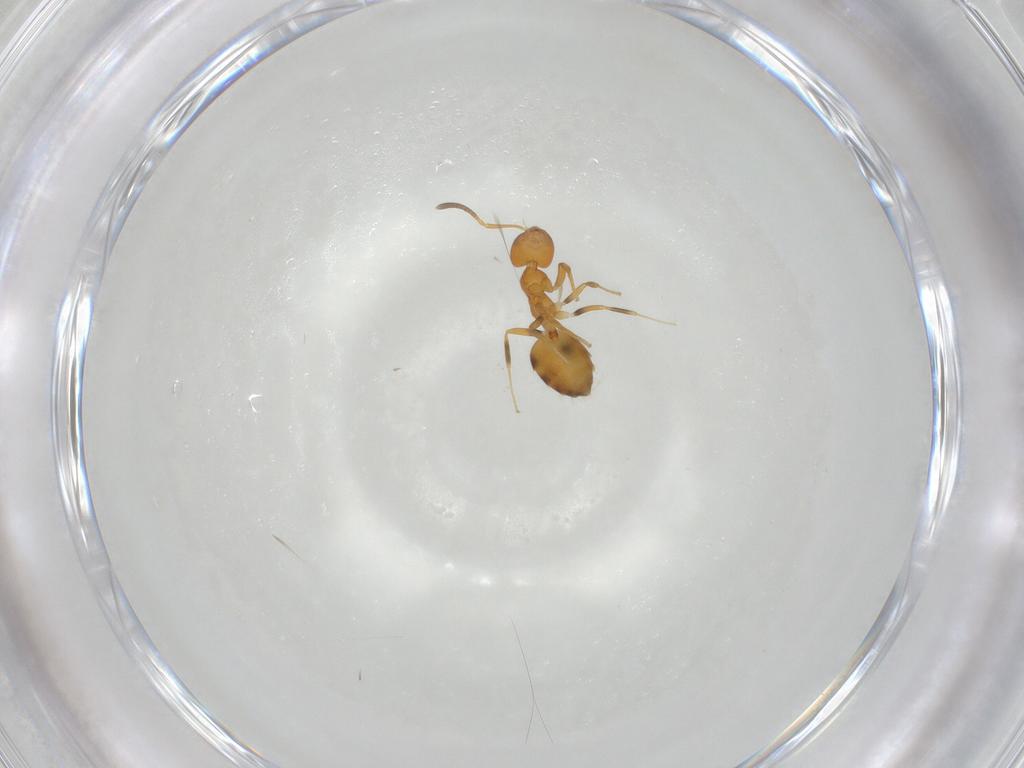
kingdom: Animalia
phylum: Arthropoda
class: Insecta
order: Hymenoptera
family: Formicidae
